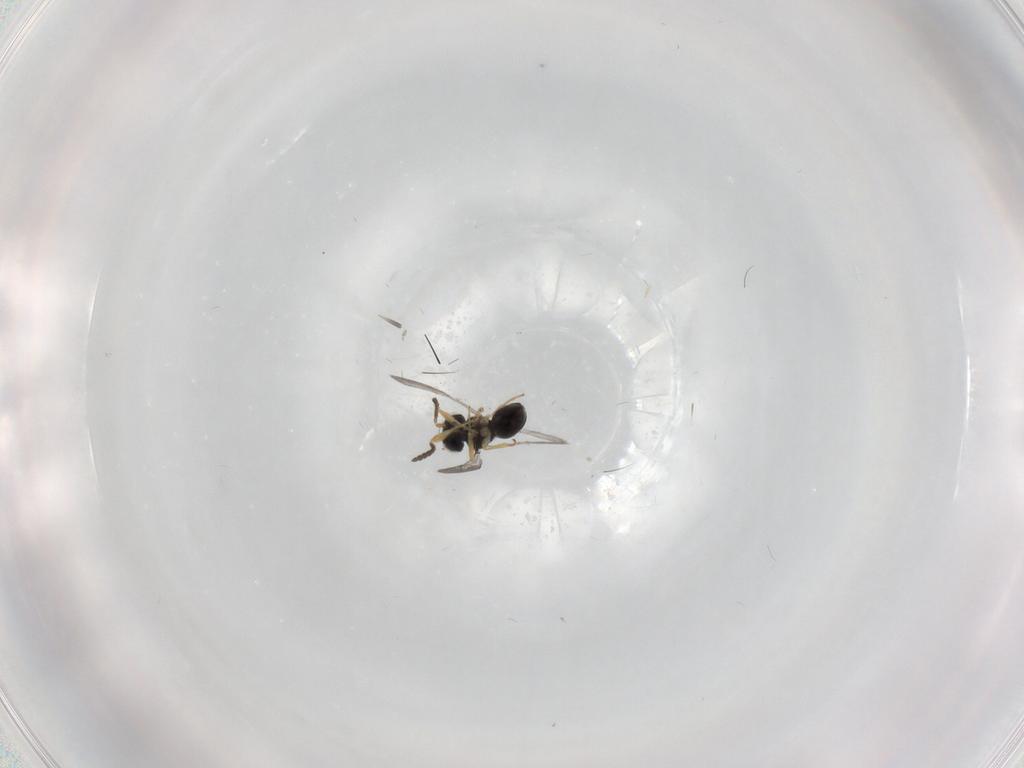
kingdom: Animalia
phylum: Arthropoda
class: Insecta
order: Hymenoptera
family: Scelionidae
